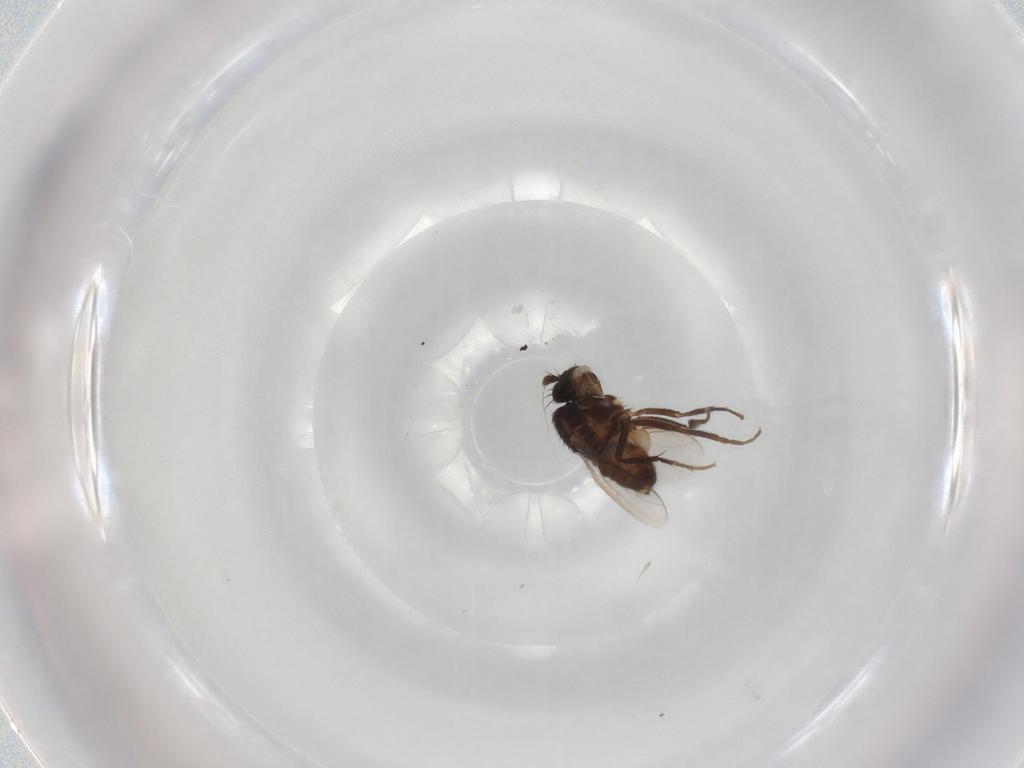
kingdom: Animalia
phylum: Arthropoda
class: Insecta
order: Diptera
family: Sphaeroceridae
